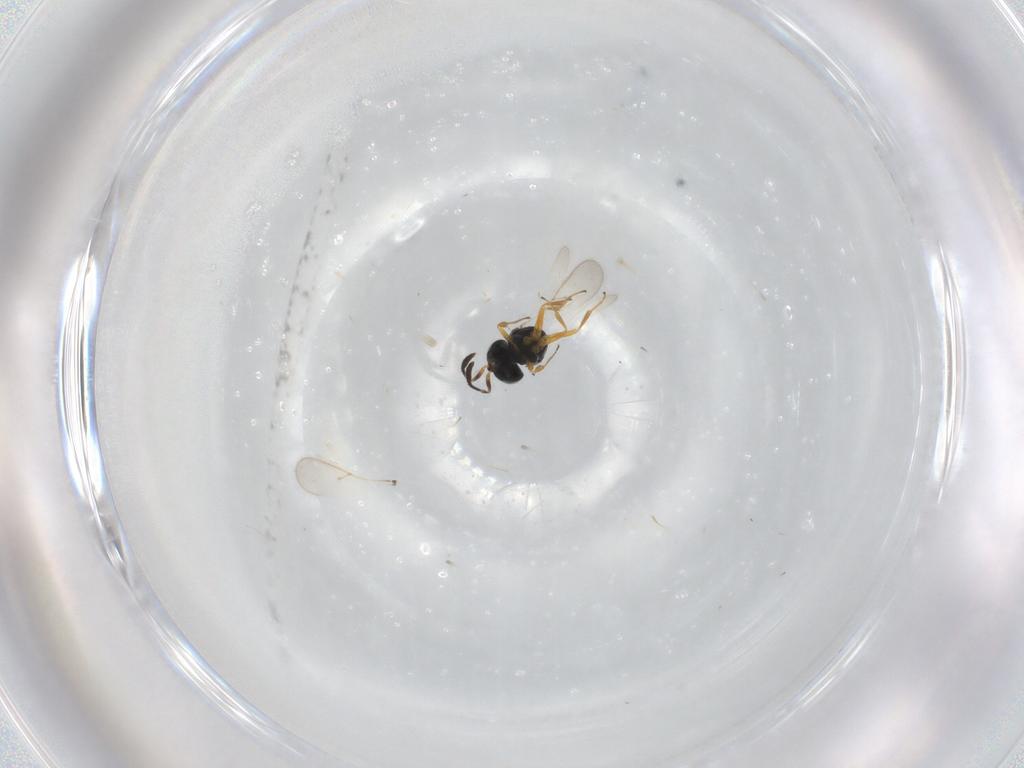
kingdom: Animalia
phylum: Arthropoda
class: Insecta
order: Hymenoptera
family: Scelionidae
